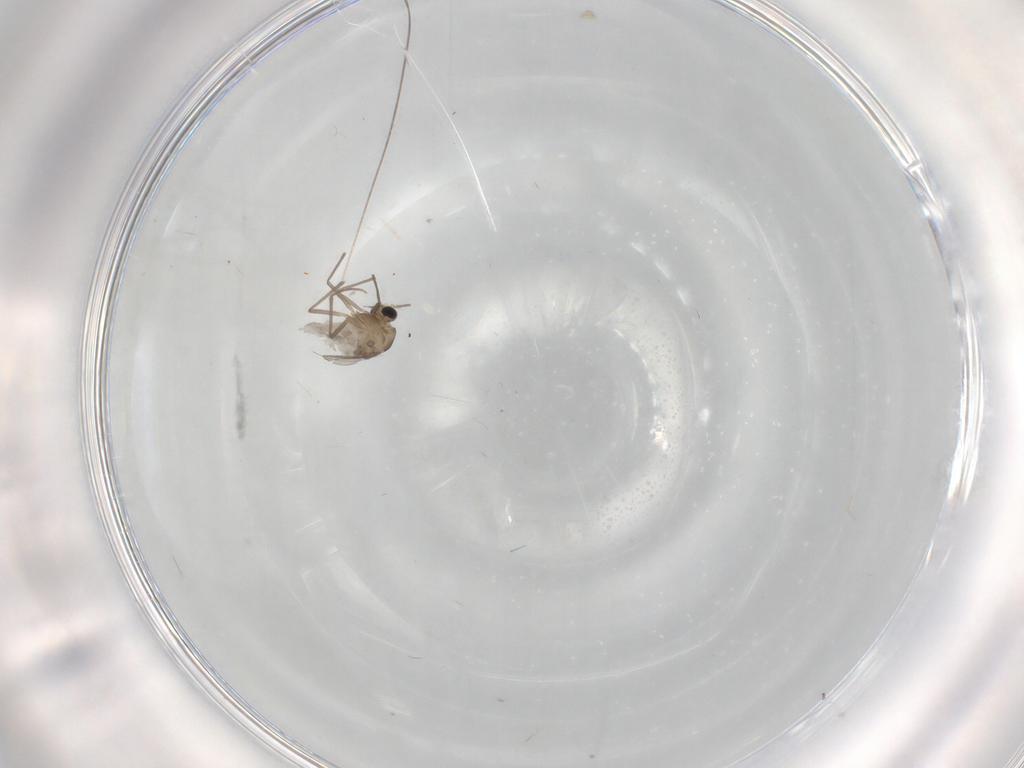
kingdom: Animalia
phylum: Arthropoda
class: Insecta
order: Diptera
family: Chironomidae
